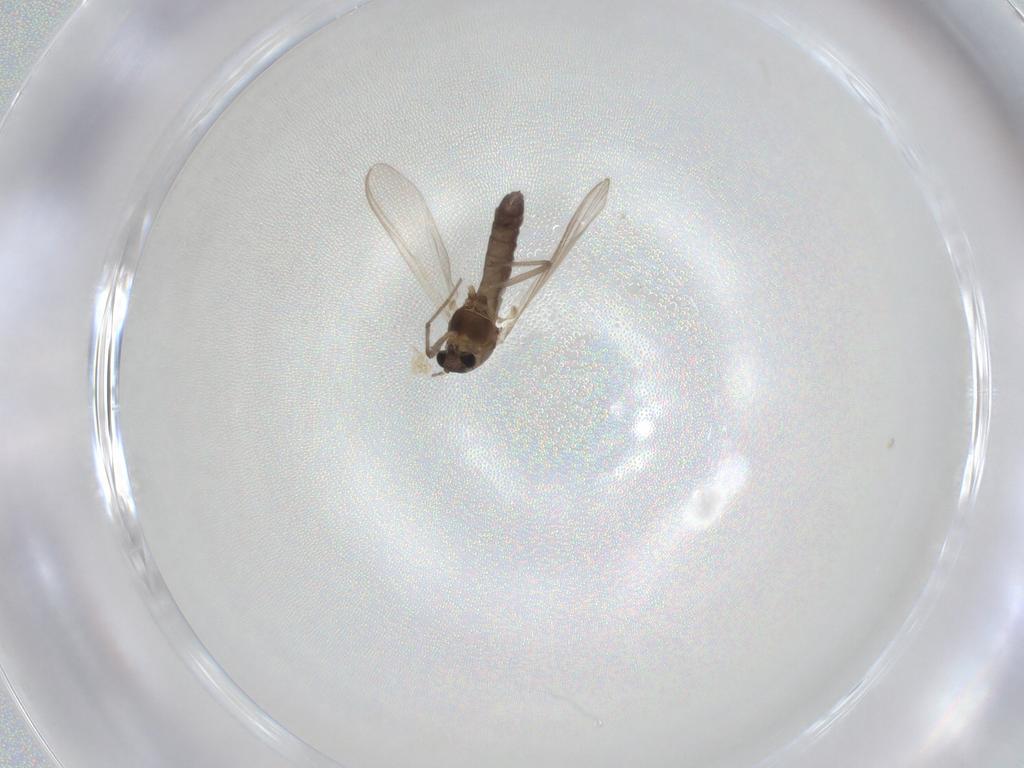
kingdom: Animalia
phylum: Arthropoda
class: Insecta
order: Diptera
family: Chironomidae
